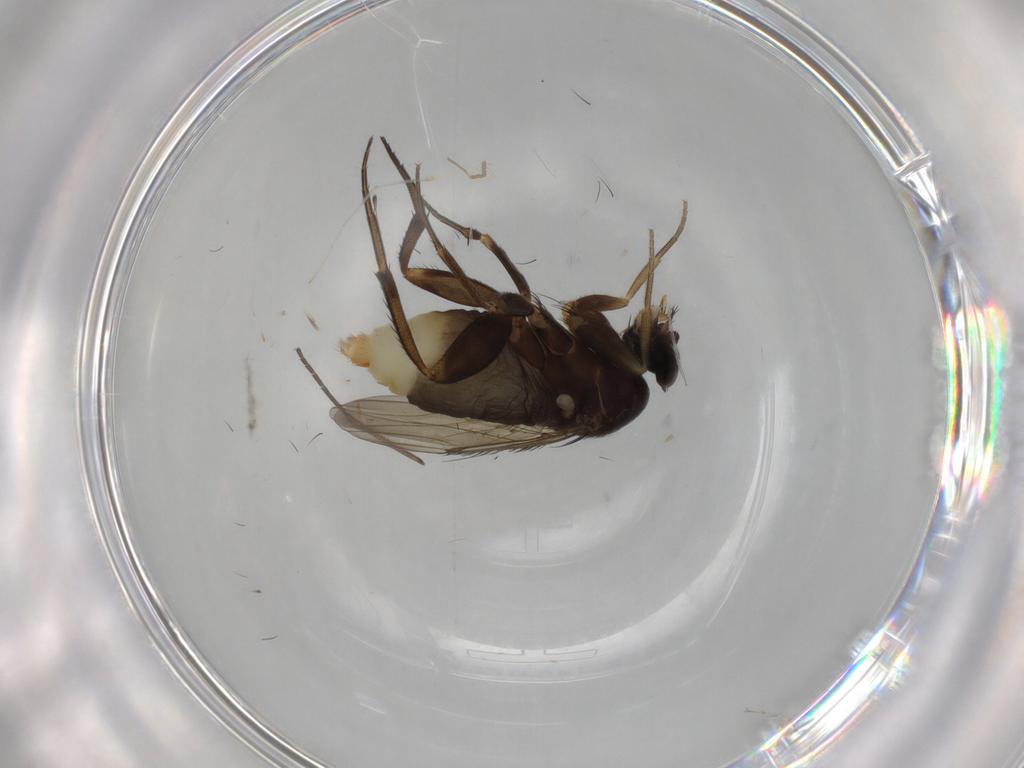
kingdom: Animalia
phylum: Arthropoda
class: Insecta
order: Diptera
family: Phoridae
